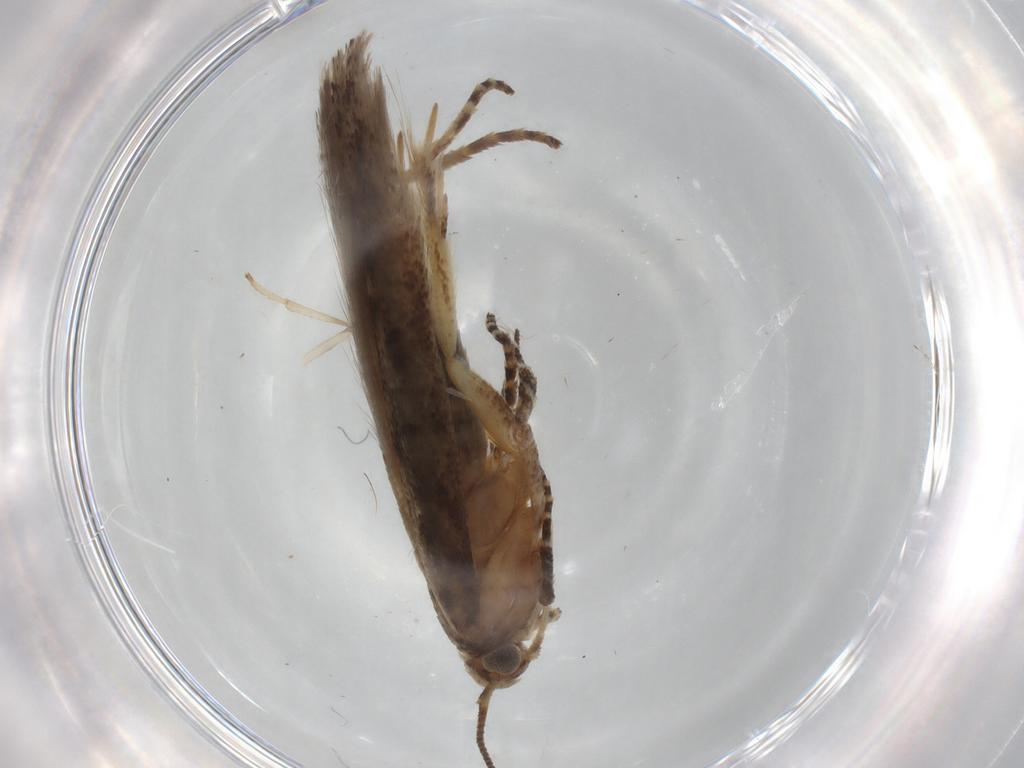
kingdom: Animalia
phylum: Arthropoda
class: Insecta
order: Lepidoptera
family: Gelechiidae
